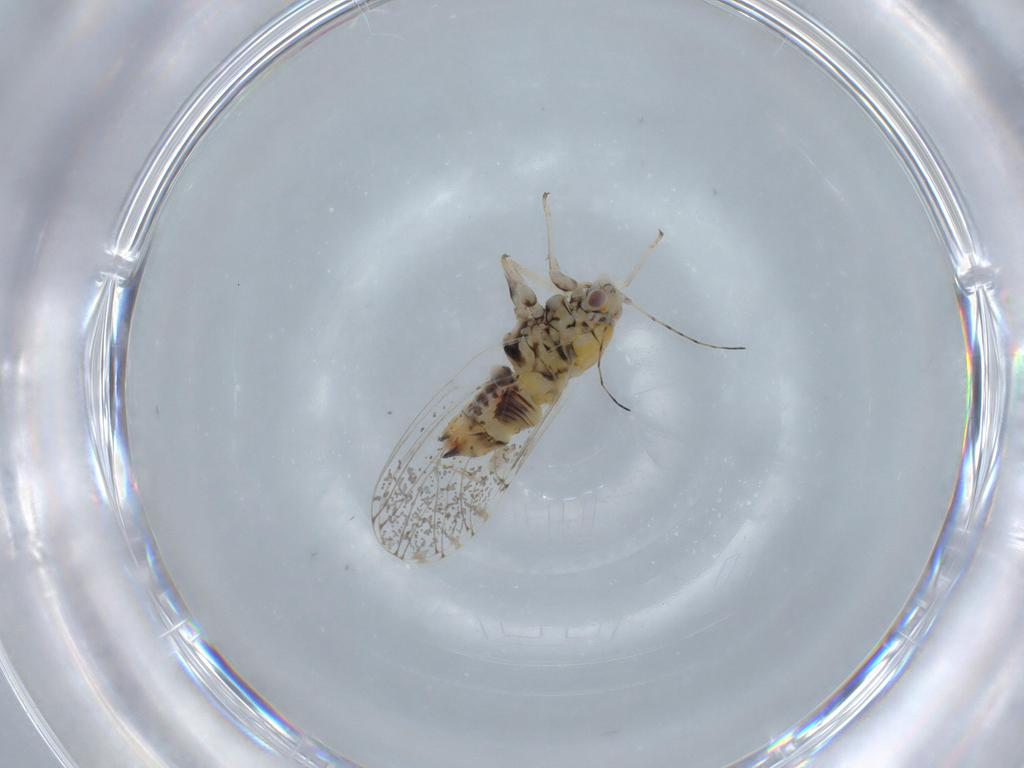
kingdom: Animalia
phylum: Arthropoda
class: Insecta
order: Hemiptera
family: Psyllidae
